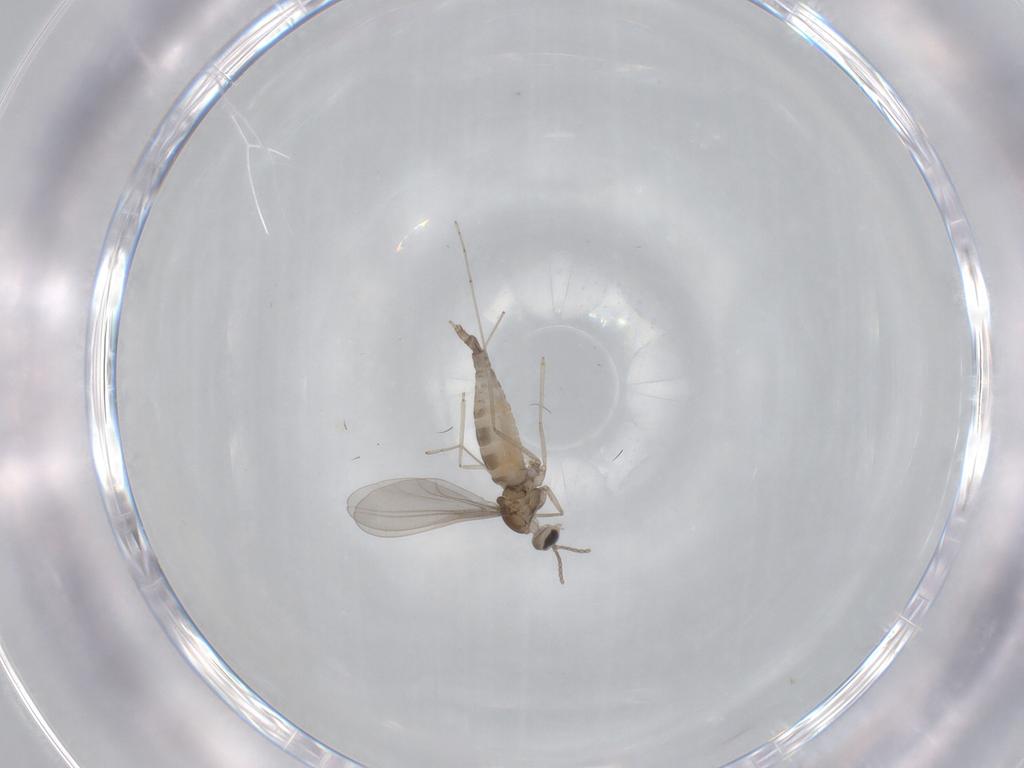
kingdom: Animalia
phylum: Arthropoda
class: Insecta
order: Diptera
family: Cecidomyiidae
